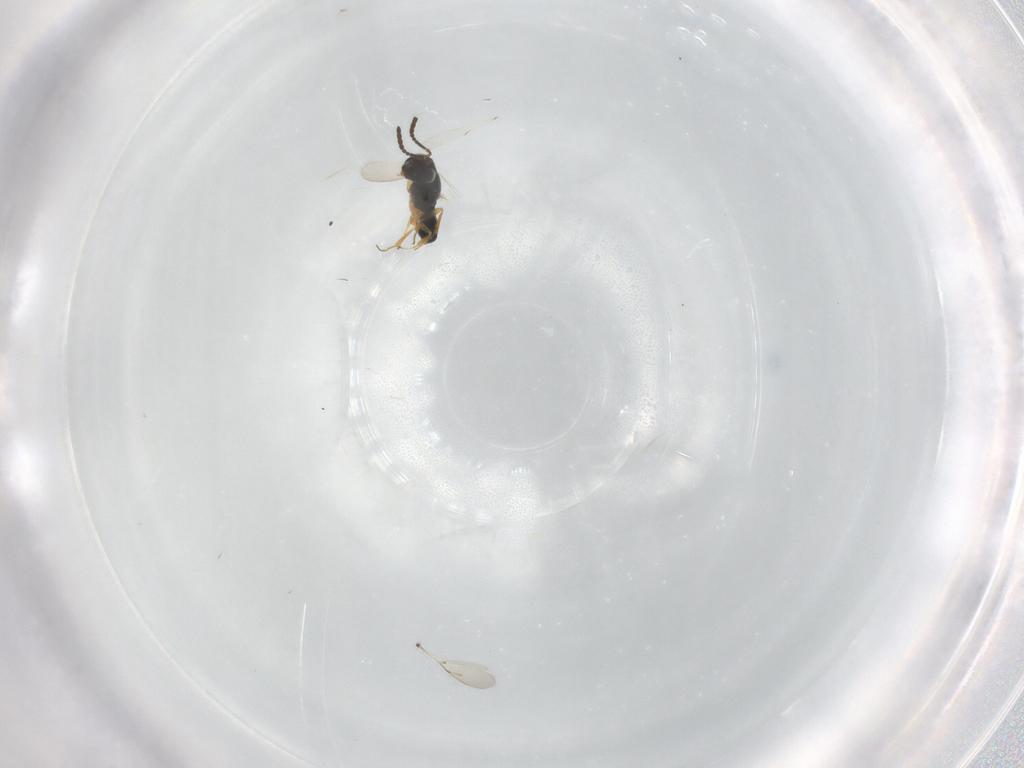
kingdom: Animalia
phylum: Arthropoda
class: Insecta
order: Hymenoptera
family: Scelionidae
